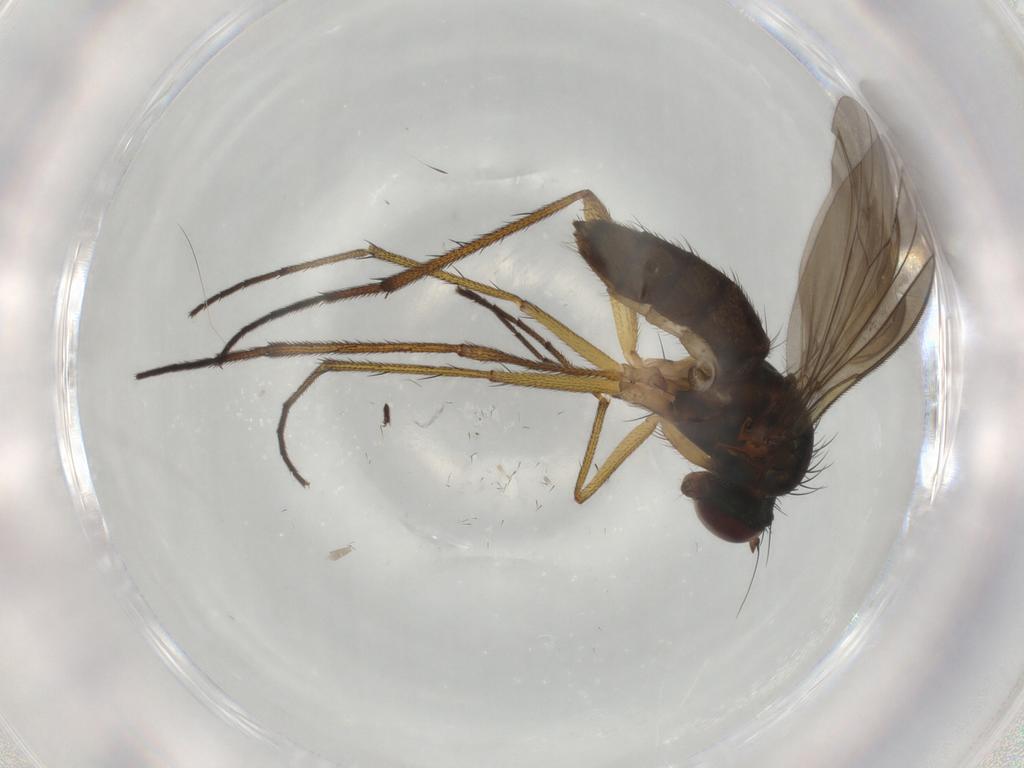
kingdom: Animalia
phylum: Arthropoda
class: Insecta
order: Diptera
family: Dolichopodidae
